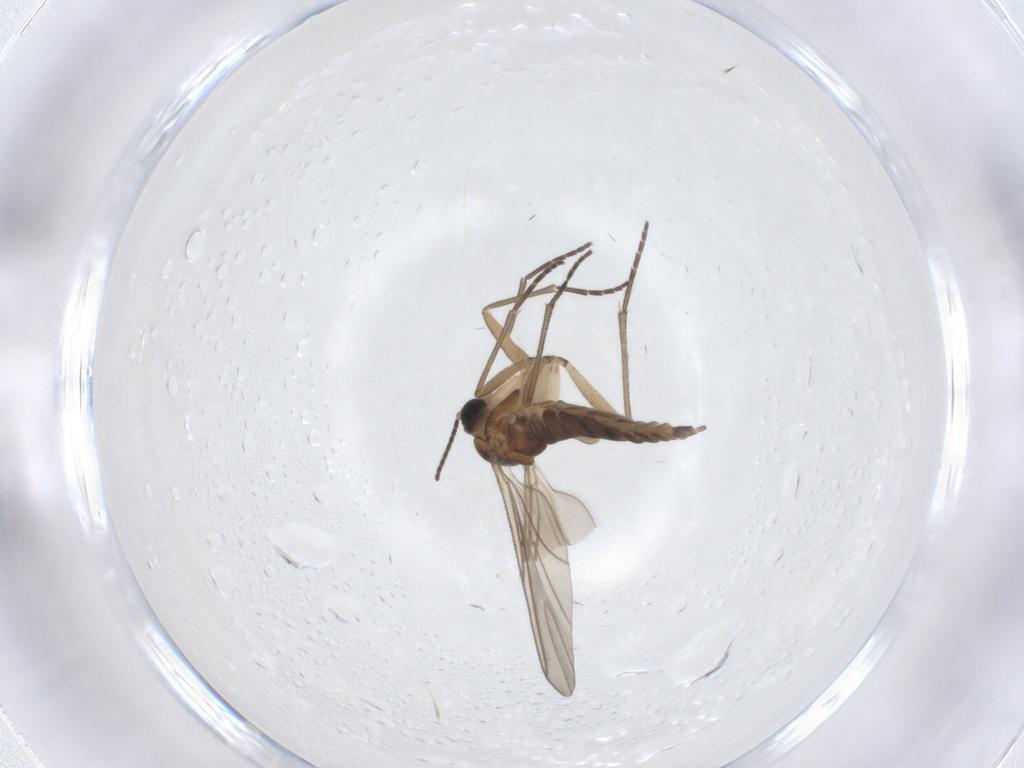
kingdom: Animalia
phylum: Arthropoda
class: Insecta
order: Diptera
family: Sciaridae
